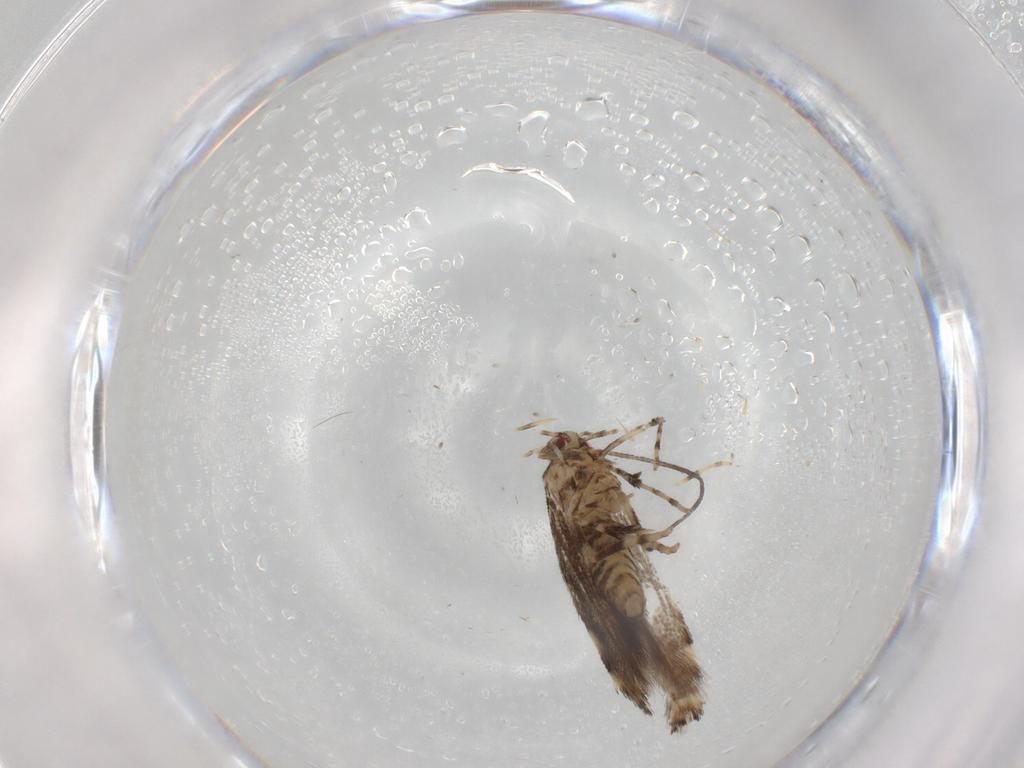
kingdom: Animalia
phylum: Arthropoda
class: Insecta
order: Lepidoptera
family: Gracillariidae
